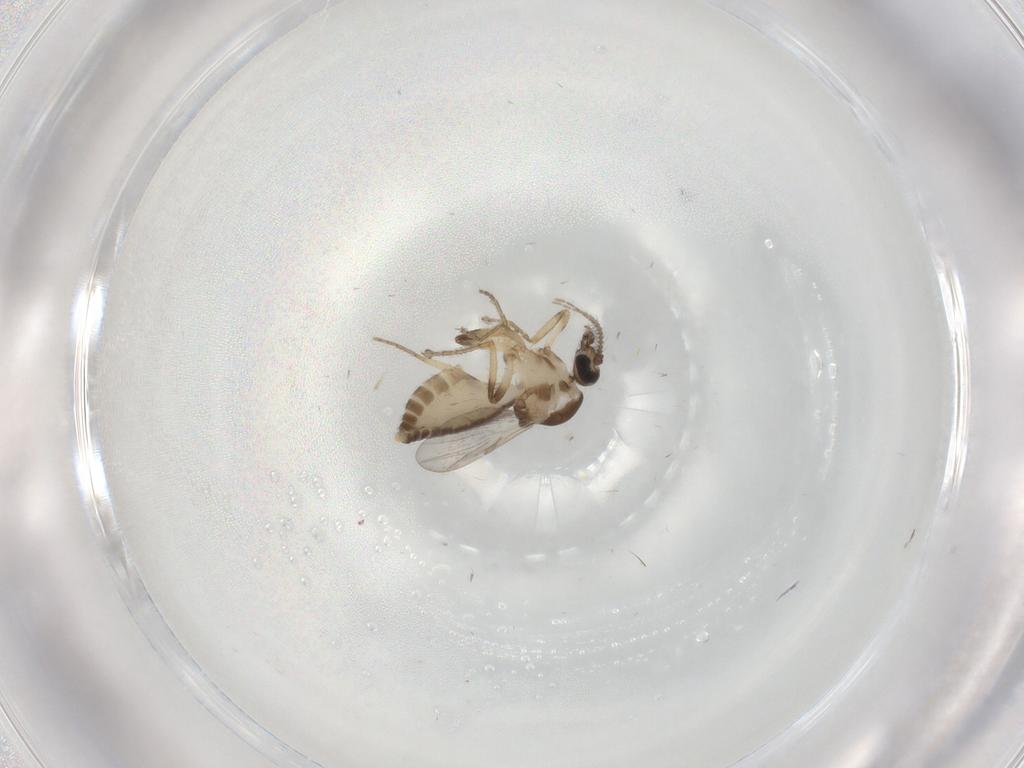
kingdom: Animalia
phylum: Arthropoda
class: Insecta
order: Diptera
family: Ceratopogonidae
